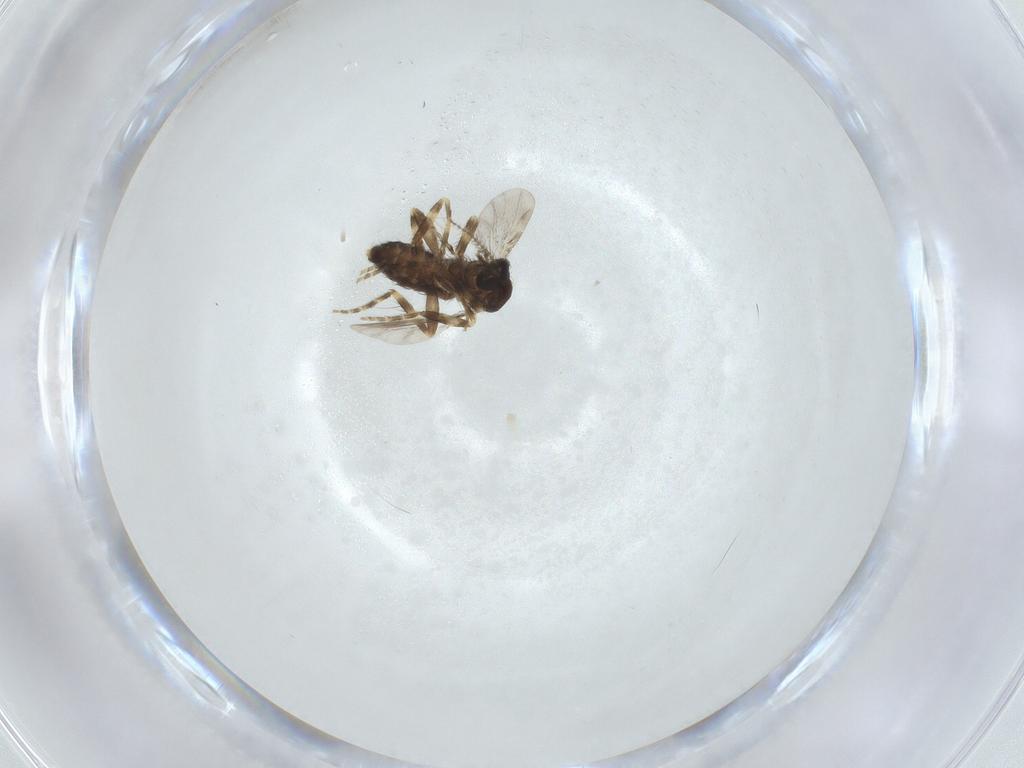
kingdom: Animalia
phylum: Arthropoda
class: Insecta
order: Diptera
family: Ceratopogonidae
